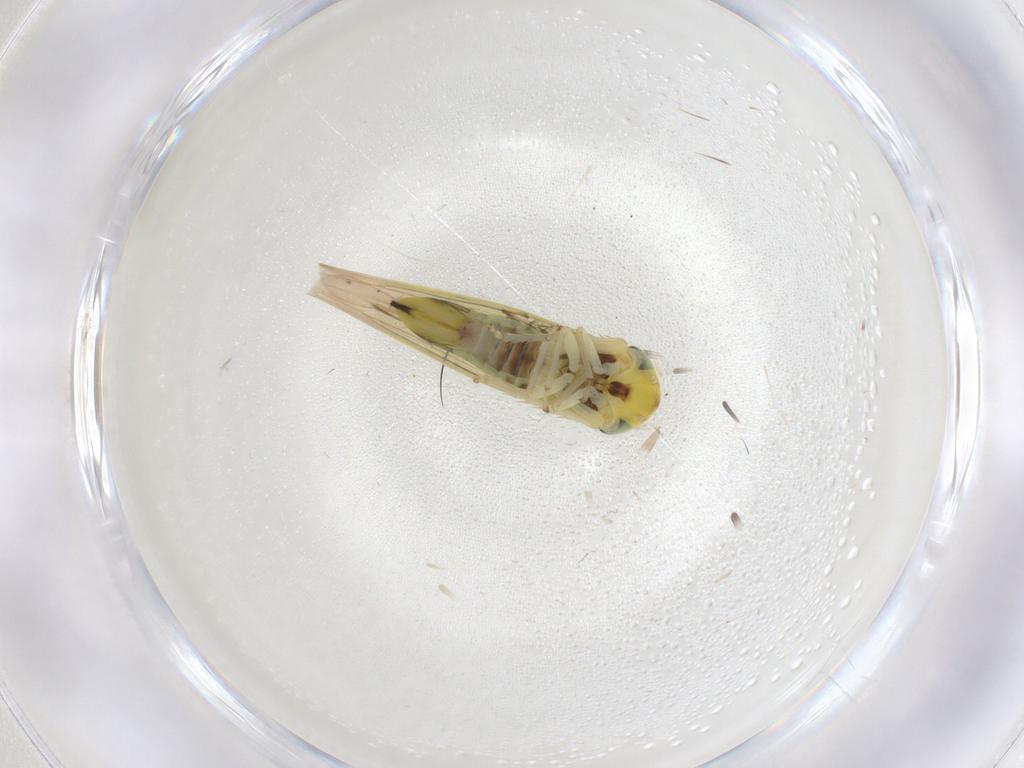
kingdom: Animalia
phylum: Arthropoda
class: Insecta
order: Hemiptera
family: Cicadellidae
